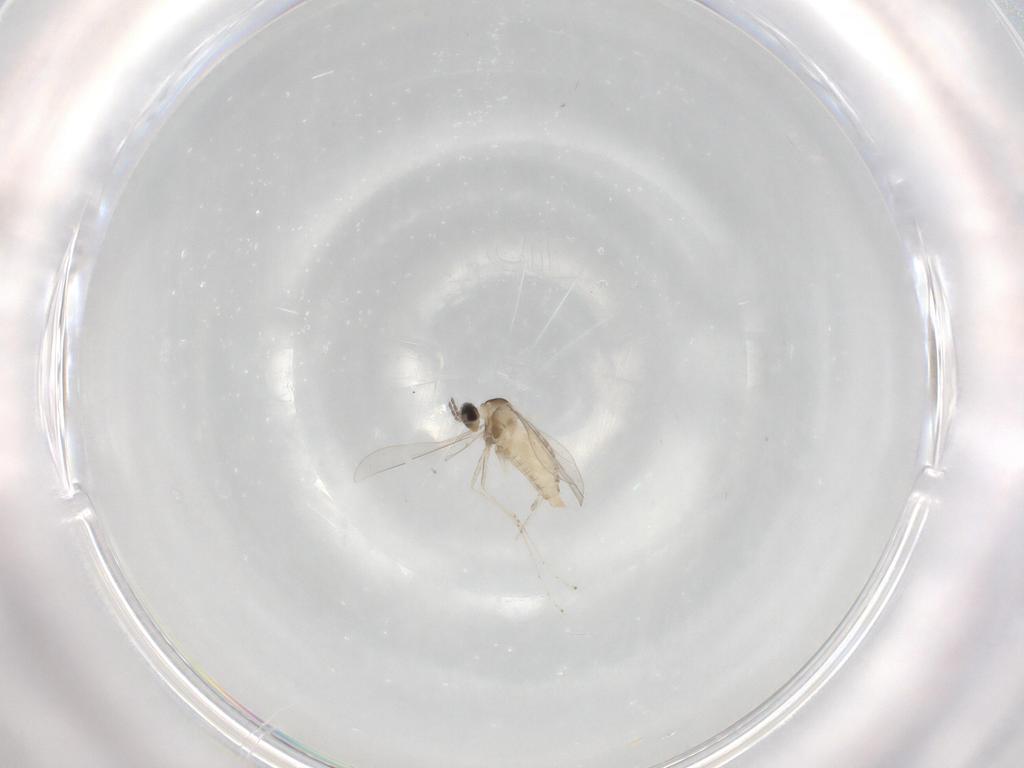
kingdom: Animalia
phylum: Arthropoda
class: Insecta
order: Diptera
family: Cecidomyiidae
